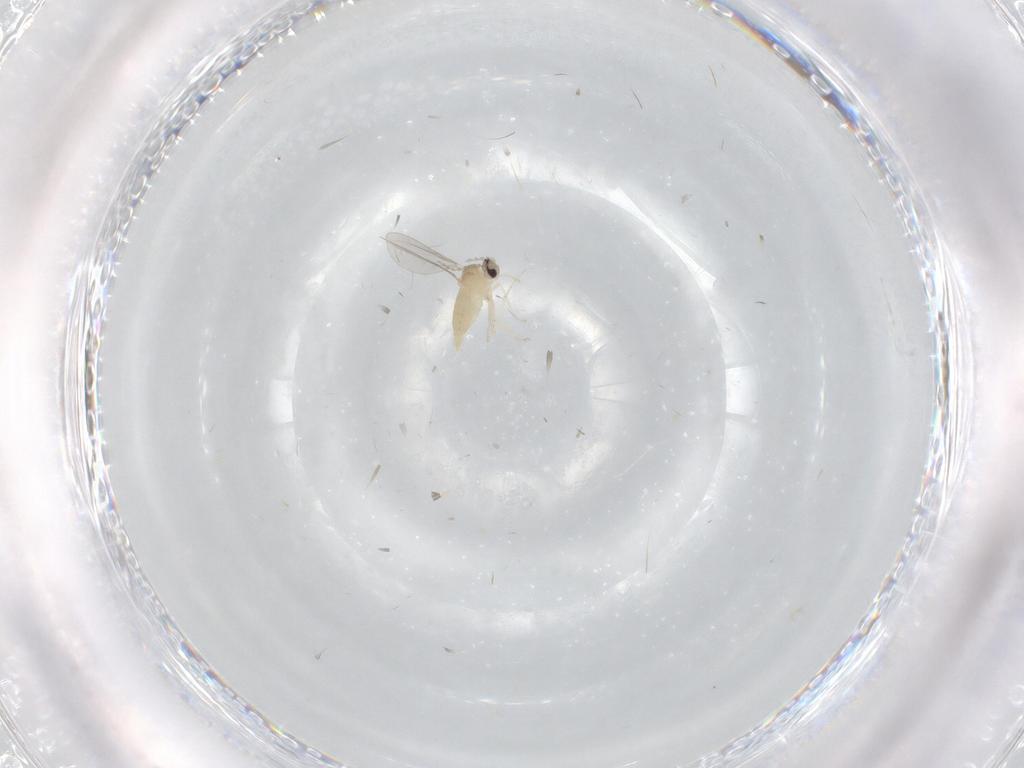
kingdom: Animalia
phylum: Arthropoda
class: Insecta
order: Diptera
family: Cecidomyiidae
